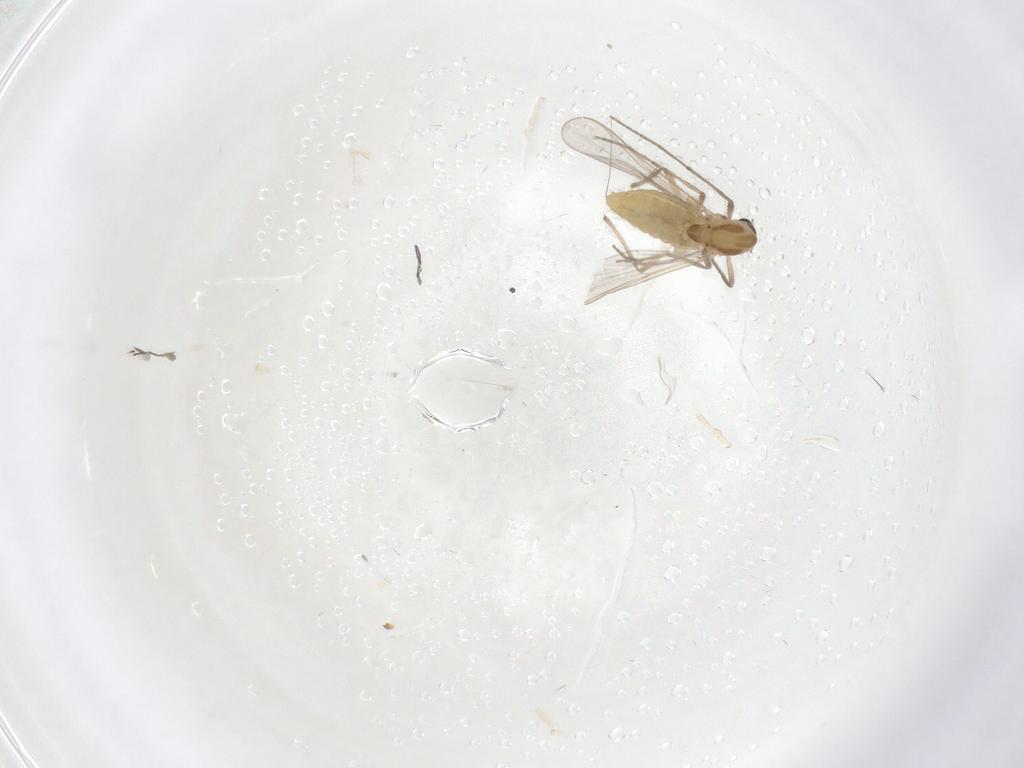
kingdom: Animalia
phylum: Arthropoda
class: Insecta
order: Diptera
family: Chironomidae
